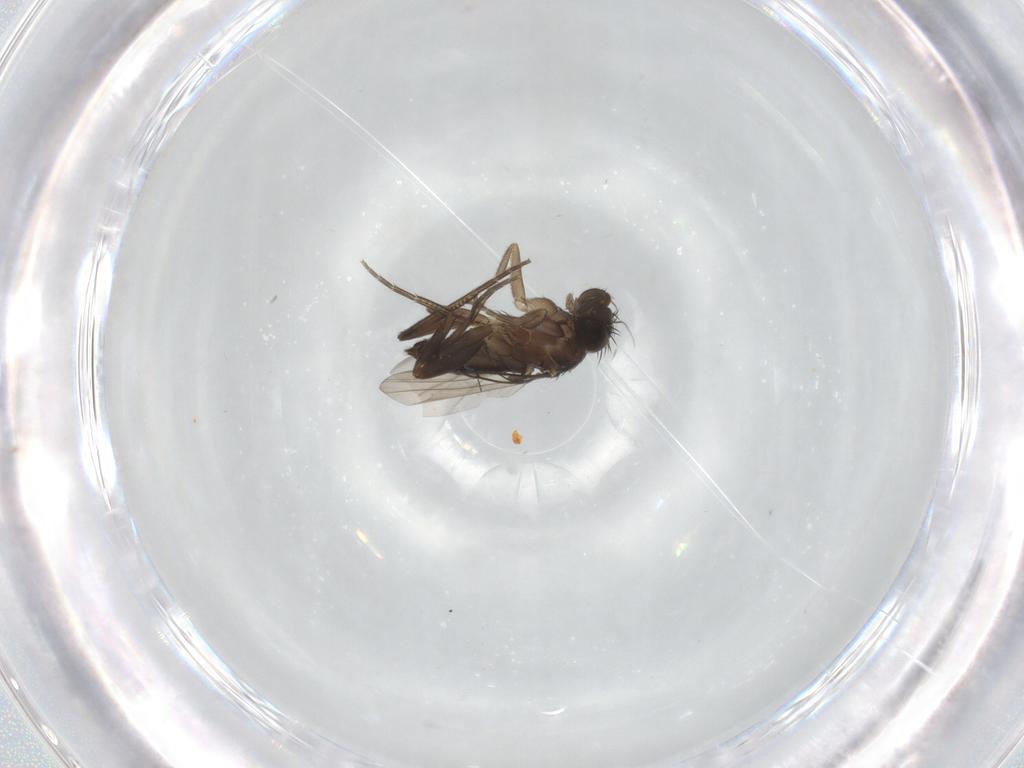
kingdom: Animalia
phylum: Arthropoda
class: Insecta
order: Diptera
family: Phoridae
